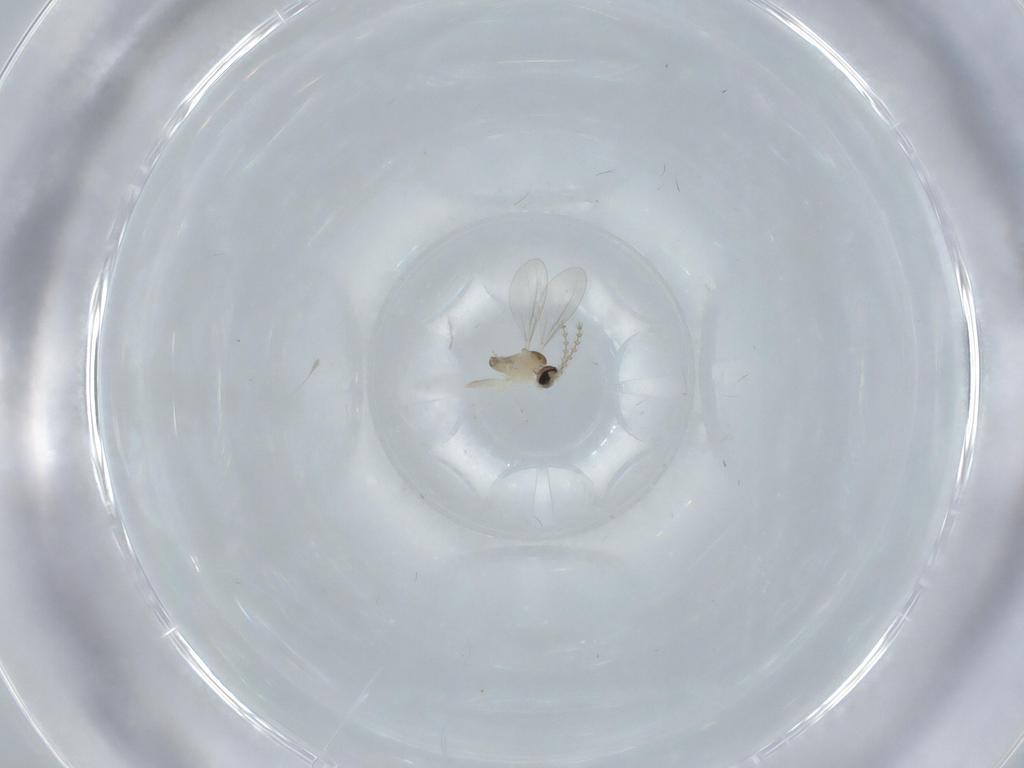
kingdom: Animalia
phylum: Arthropoda
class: Insecta
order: Diptera
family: Cecidomyiidae
